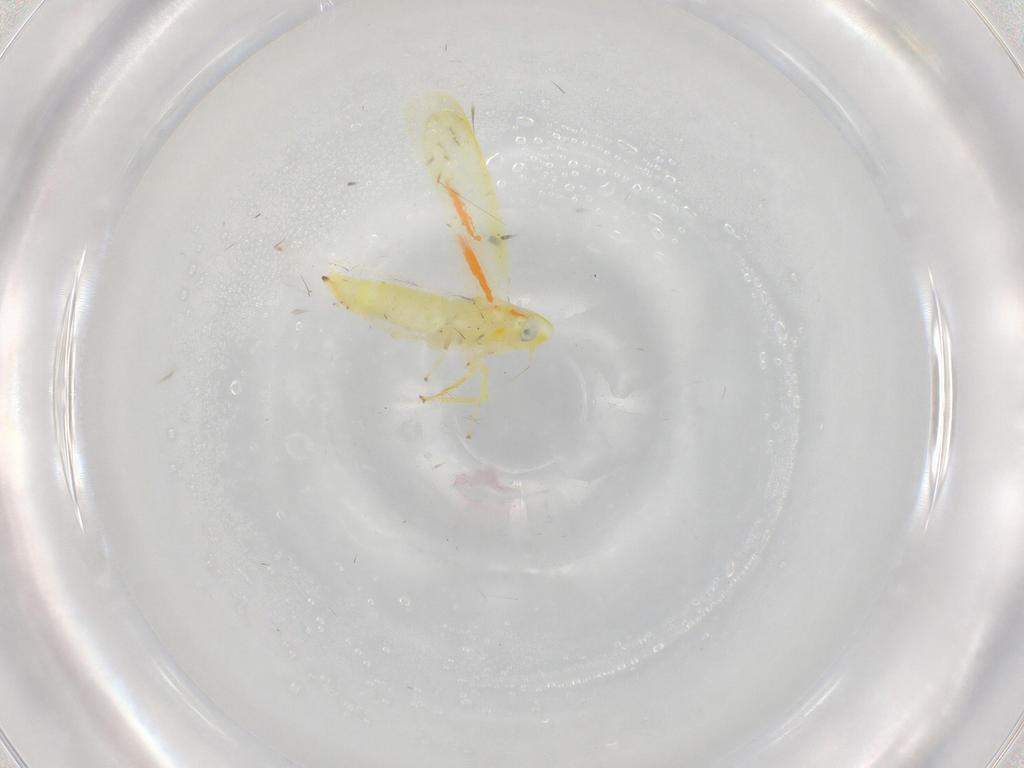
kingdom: Animalia
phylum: Arthropoda
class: Insecta
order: Hemiptera
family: Cicadellidae
